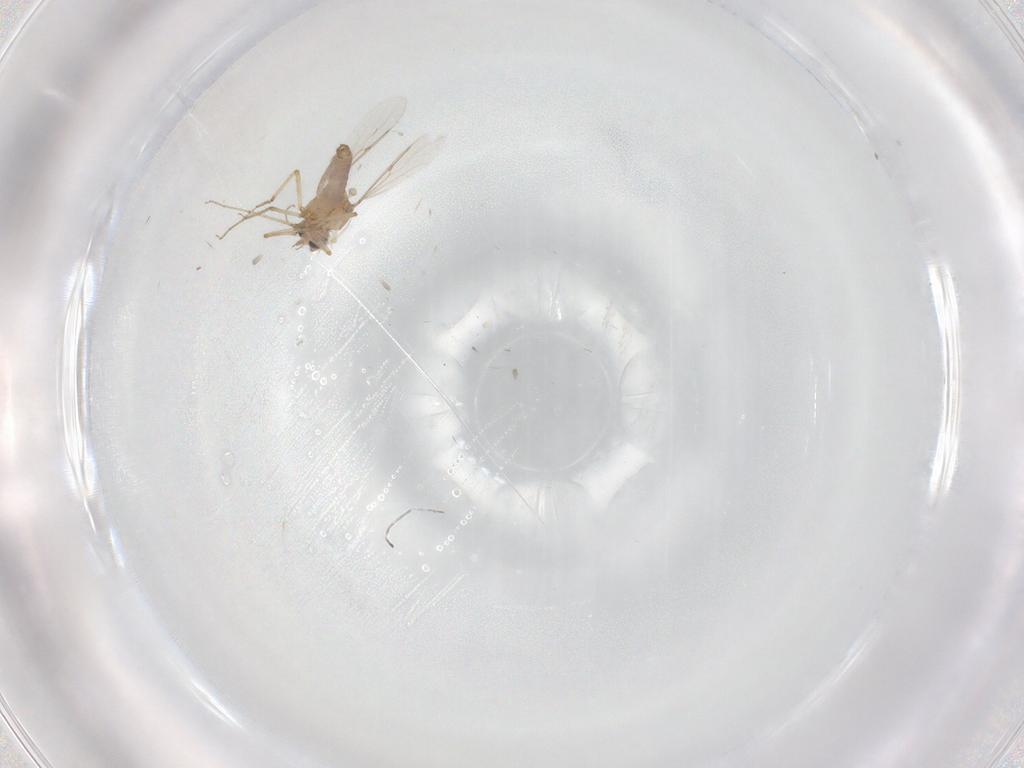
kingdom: Animalia
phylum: Arthropoda
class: Insecta
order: Diptera
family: Ceratopogonidae
